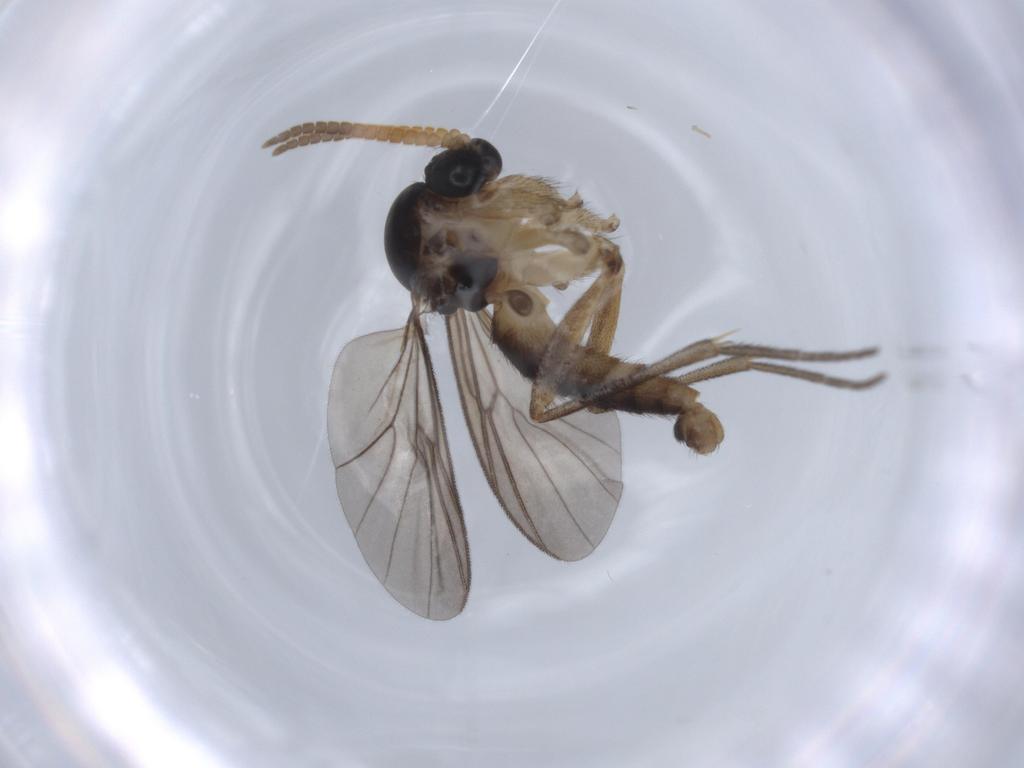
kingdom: Animalia
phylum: Arthropoda
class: Insecta
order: Diptera
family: Mycetophilidae
